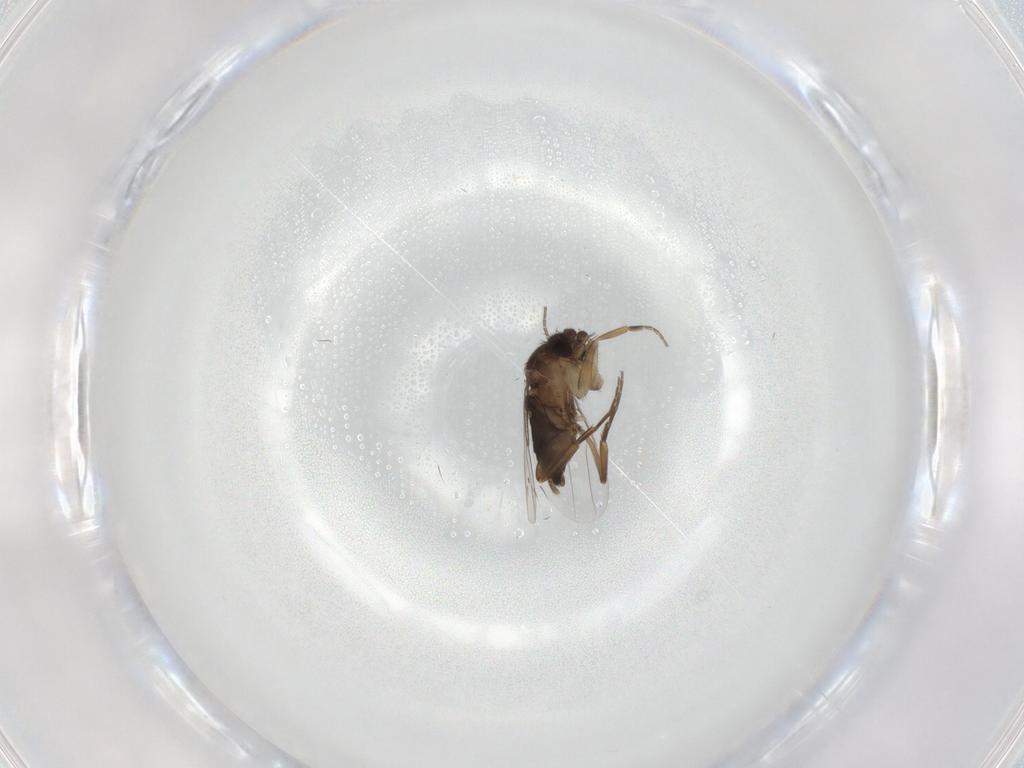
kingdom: Animalia
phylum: Arthropoda
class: Insecta
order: Diptera
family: Phoridae
